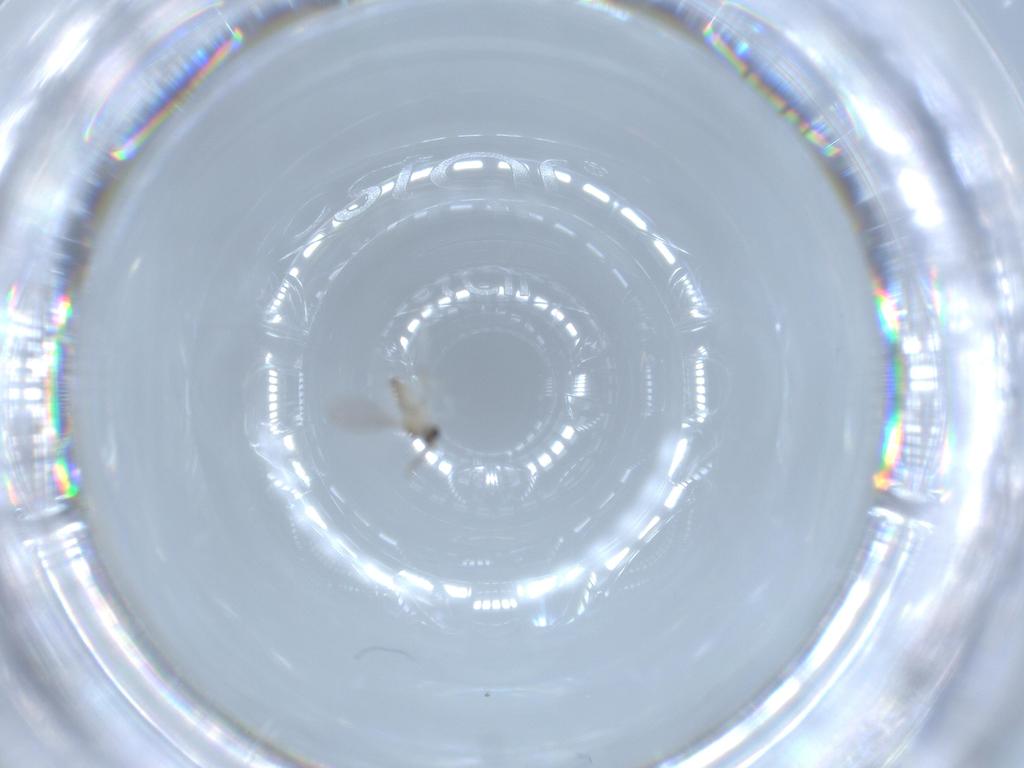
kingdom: Animalia
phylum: Arthropoda
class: Insecta
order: Diptera
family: Cecidomyiidae
